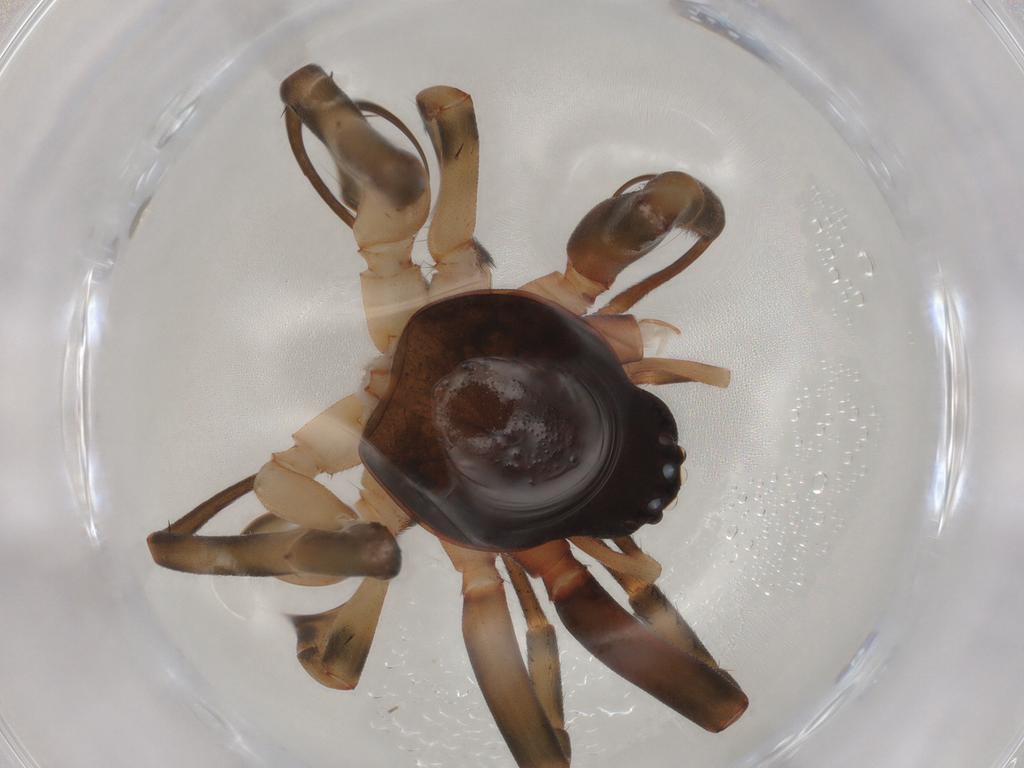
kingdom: Animalia
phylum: Arthropoda
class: Arachnida
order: Araneae
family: Trachelidae
